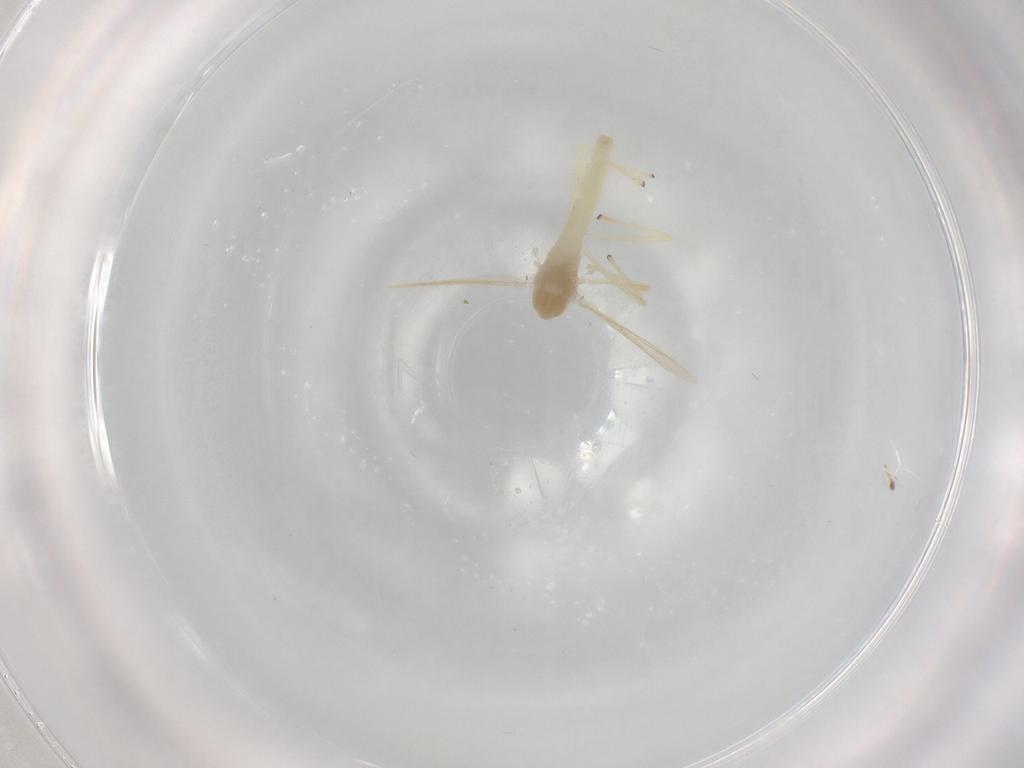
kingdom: Animalia
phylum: Arthropoda
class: Insecta
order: Diptera
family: Chironomidae
